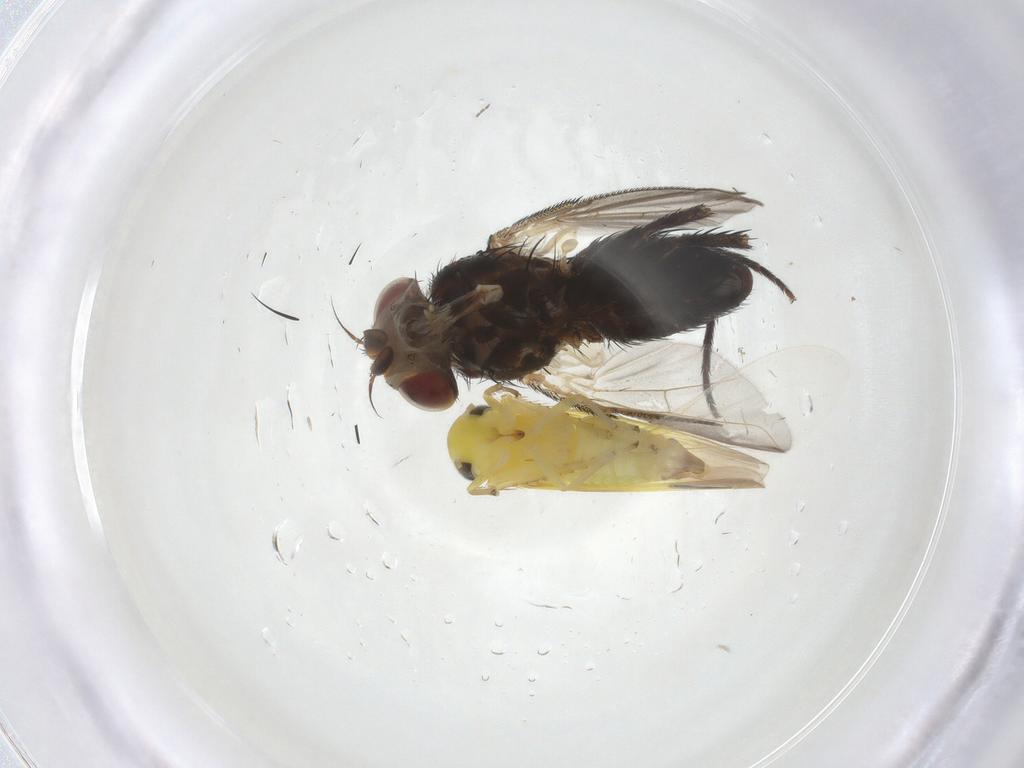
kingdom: Animalia
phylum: Arthropoda
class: Insecta
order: Diptera
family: Tachinidae
